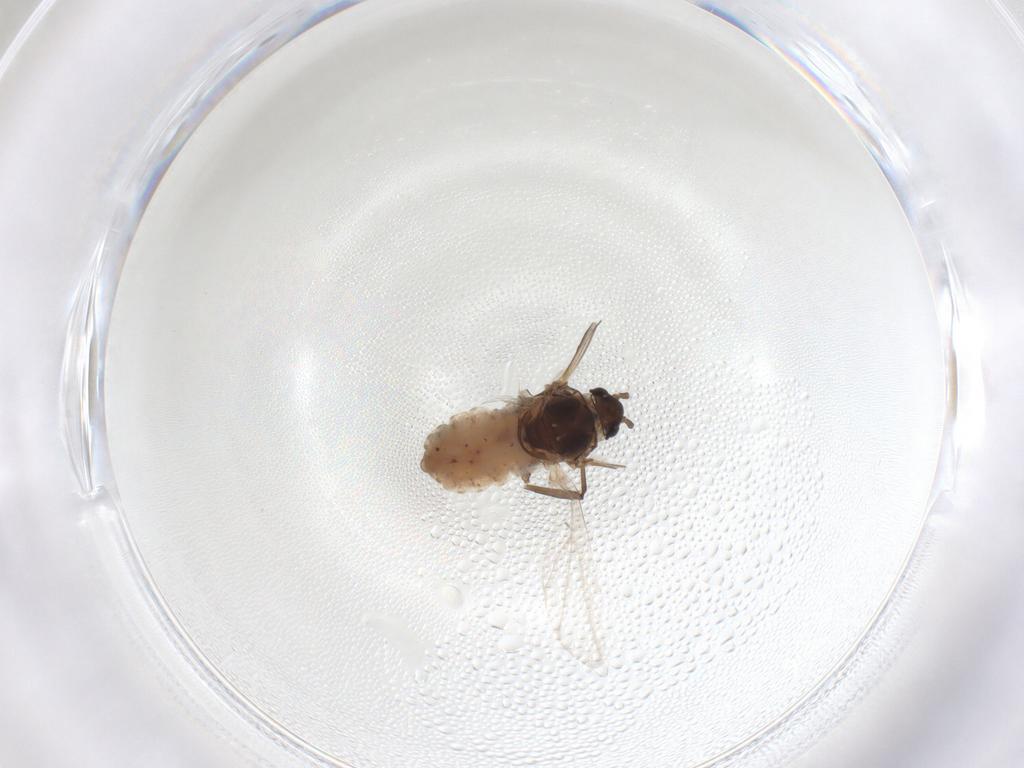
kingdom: Animalia
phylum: Arthropoda
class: Insecta
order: Hemiptera
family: Aphididae
